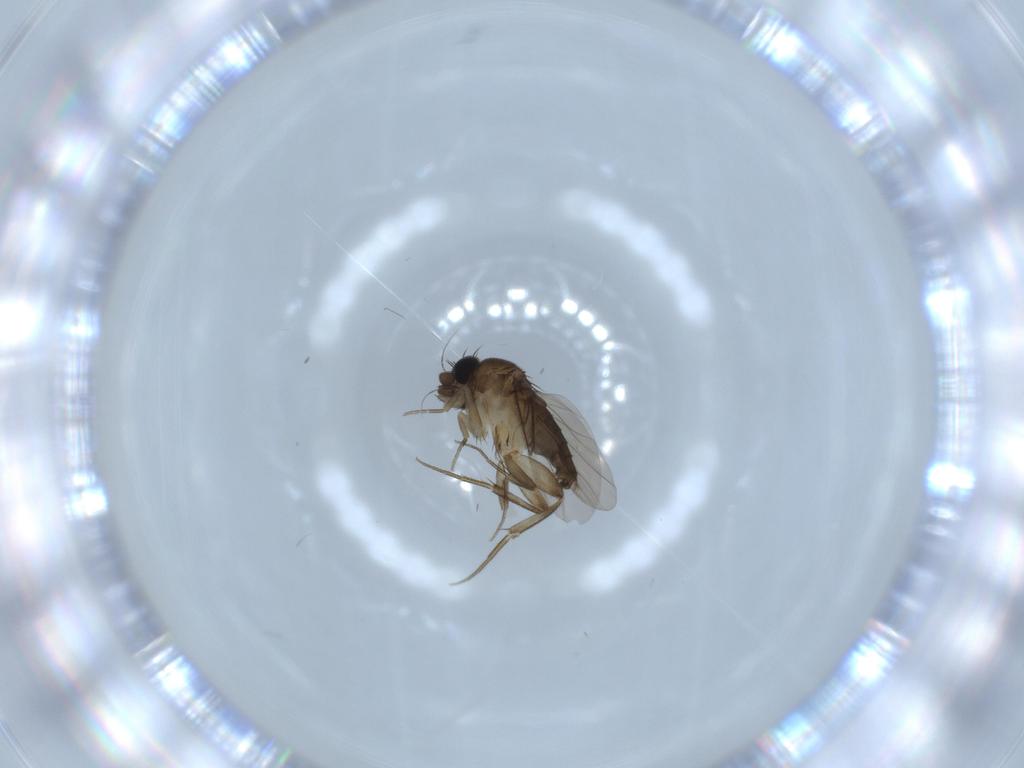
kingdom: Animalia
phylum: Arthropoda
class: Insecta
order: Diptera
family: Phoridae
